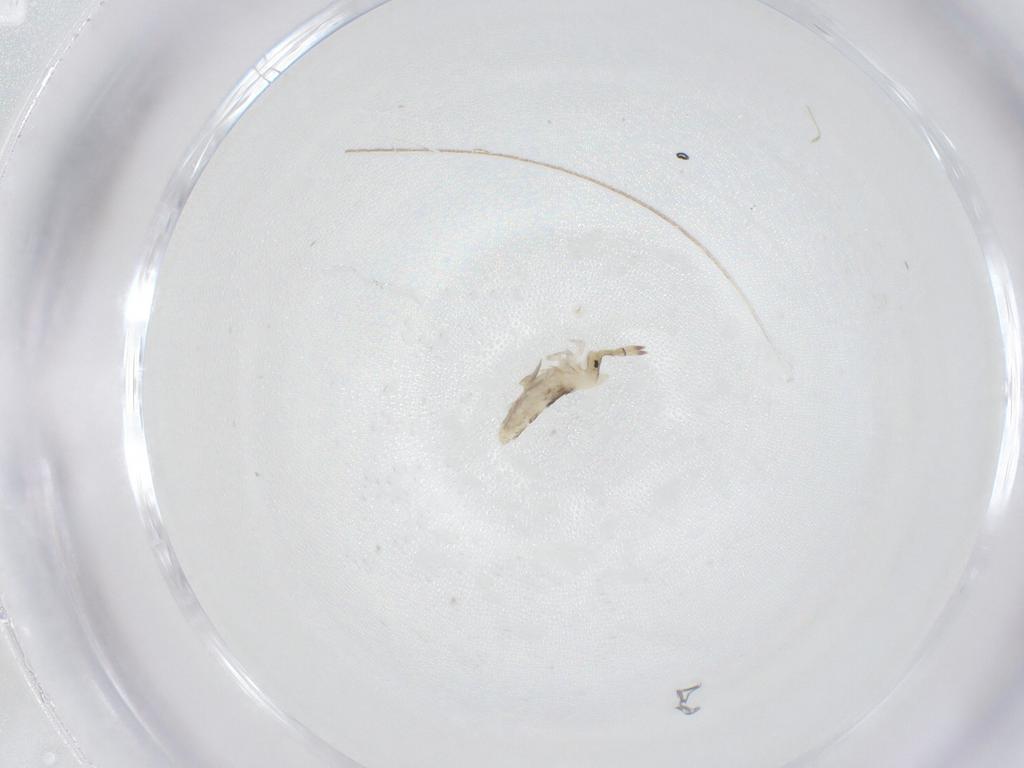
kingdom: Animalia
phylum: Arthropoda
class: Collembola
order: Entomobryomorpha
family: Entomobryidae
